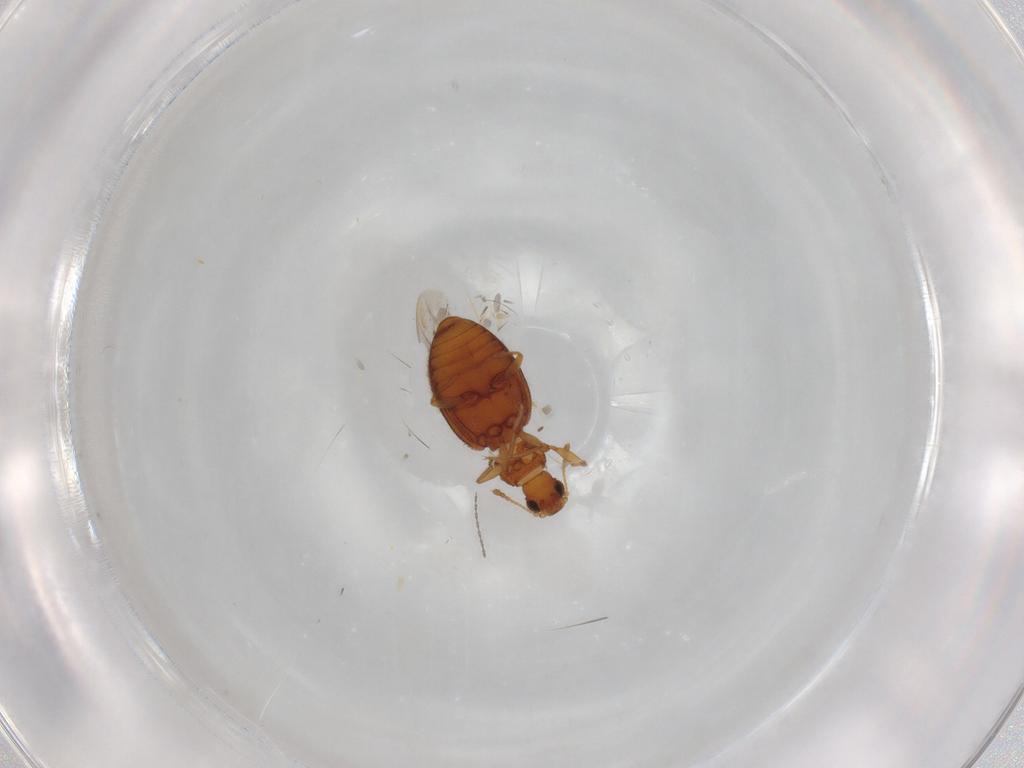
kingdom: Animalia
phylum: Arthropoda
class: Insecta
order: Coleoptera
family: Latridiidae
